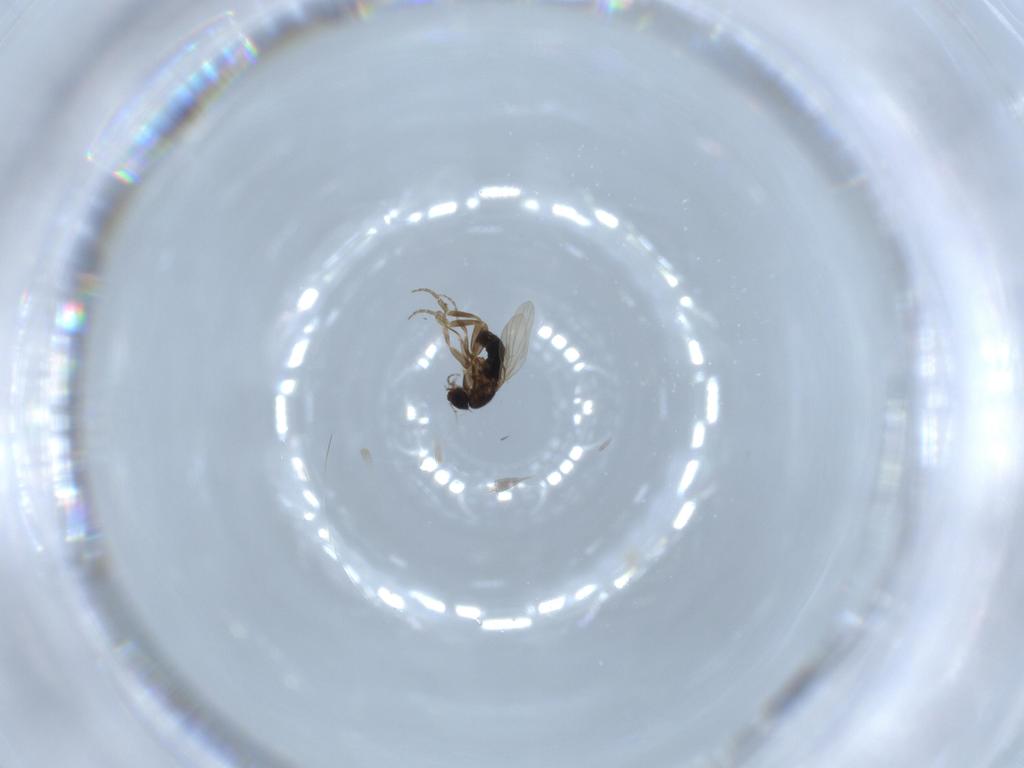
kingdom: Animalia
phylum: Arthropoda
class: Insecta
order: Diptera
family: Phoridae
